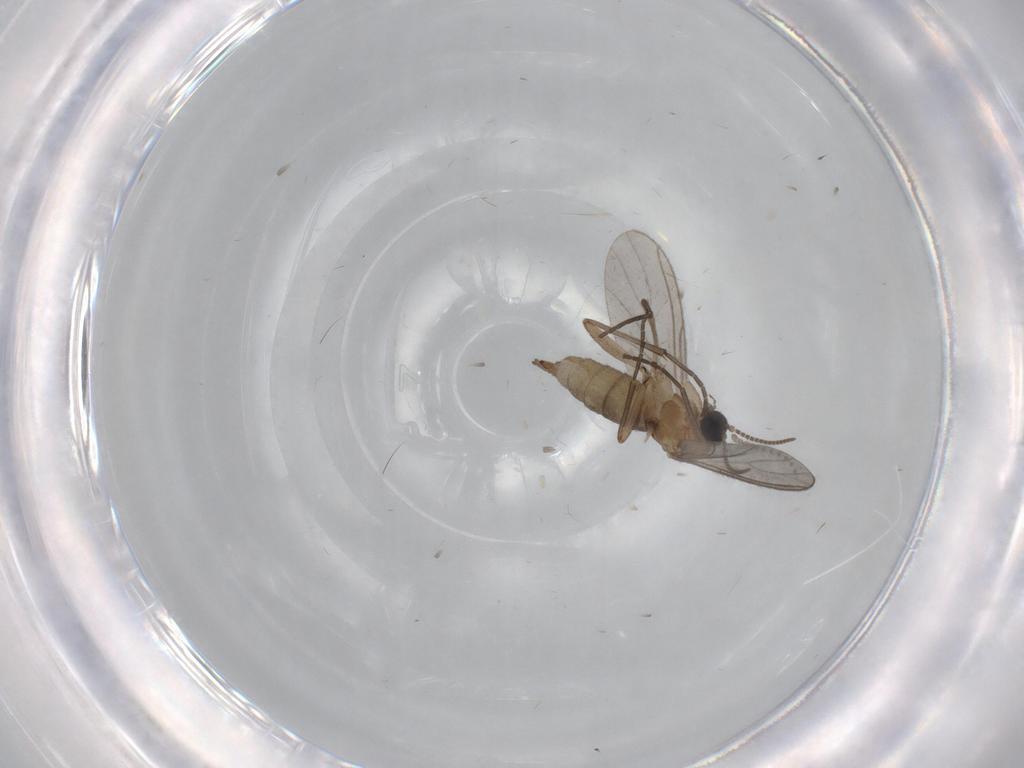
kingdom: Animalia
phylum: Arthropoda
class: Insecta
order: Diptera
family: Psychodidae
